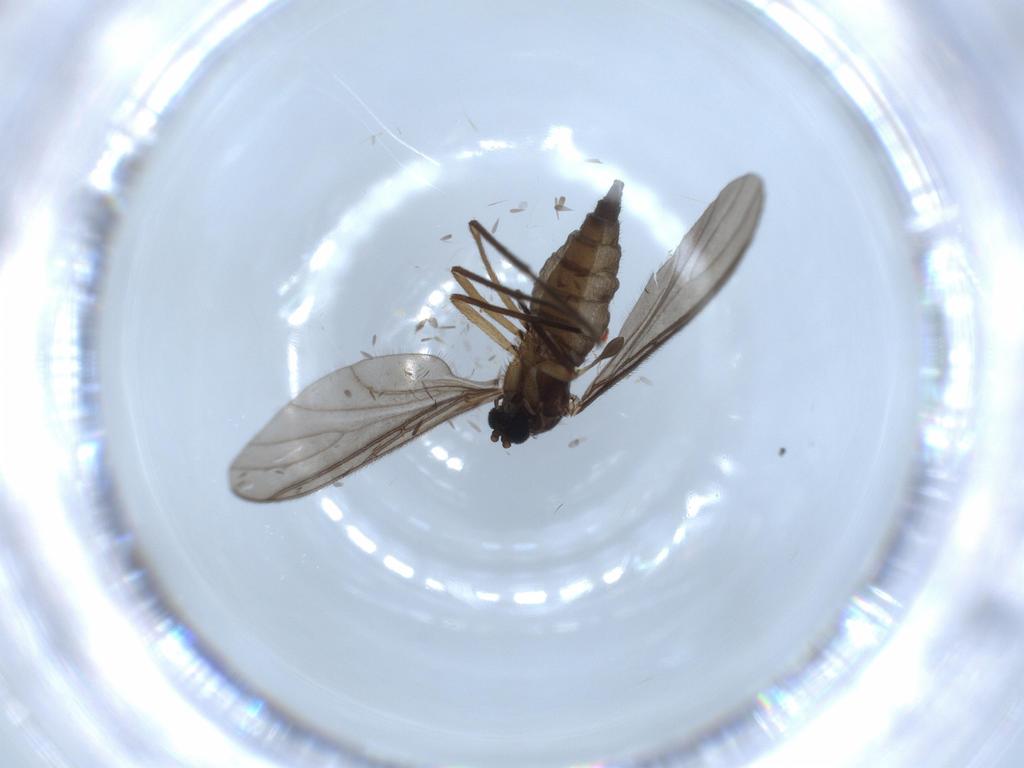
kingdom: Animalia
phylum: Arthropoda
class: Insecta
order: Diptera
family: Sciaridae
